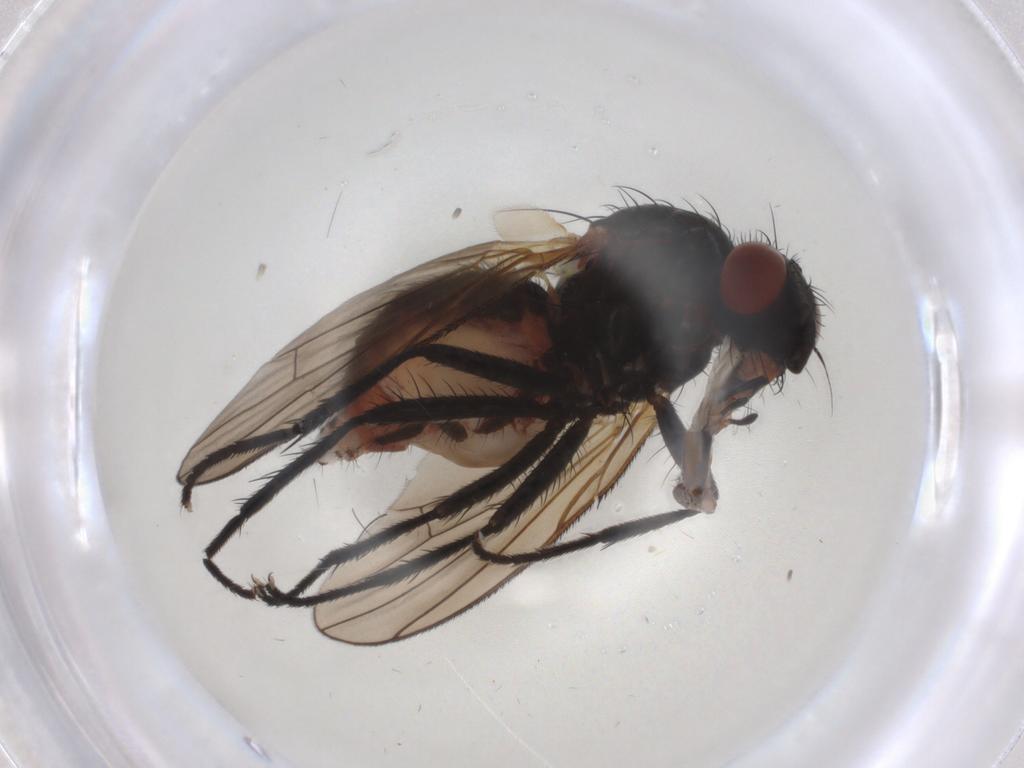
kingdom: Animalia
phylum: Arthropoda
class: Insecta
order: Diptera
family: Anthomyiidae
